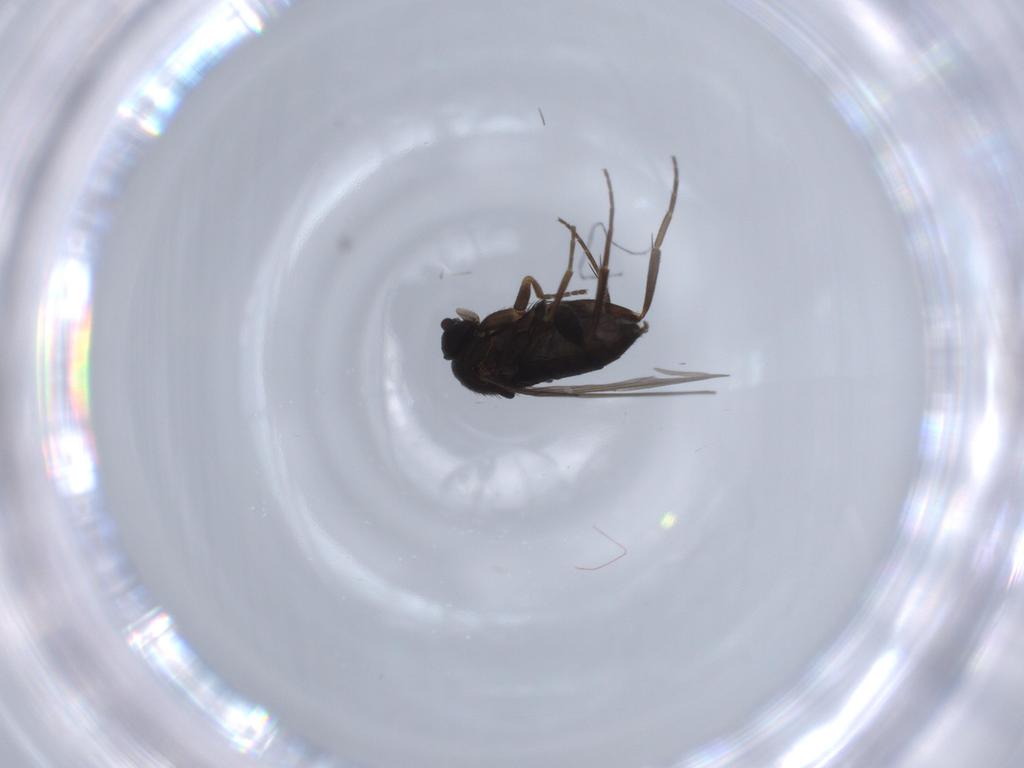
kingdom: Animalia
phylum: Arthropoda
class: Insecta
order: Diptera
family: Phoridae
